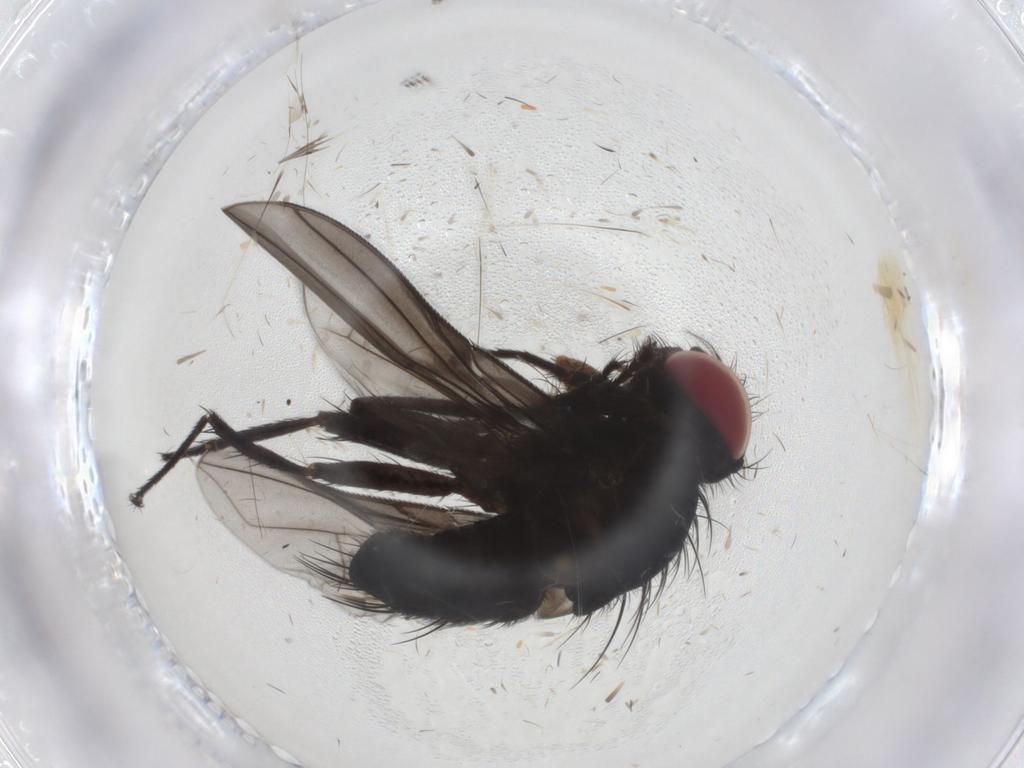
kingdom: Animalia
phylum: Arthropoda
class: Insecta
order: Diptera
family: Tachinidae
